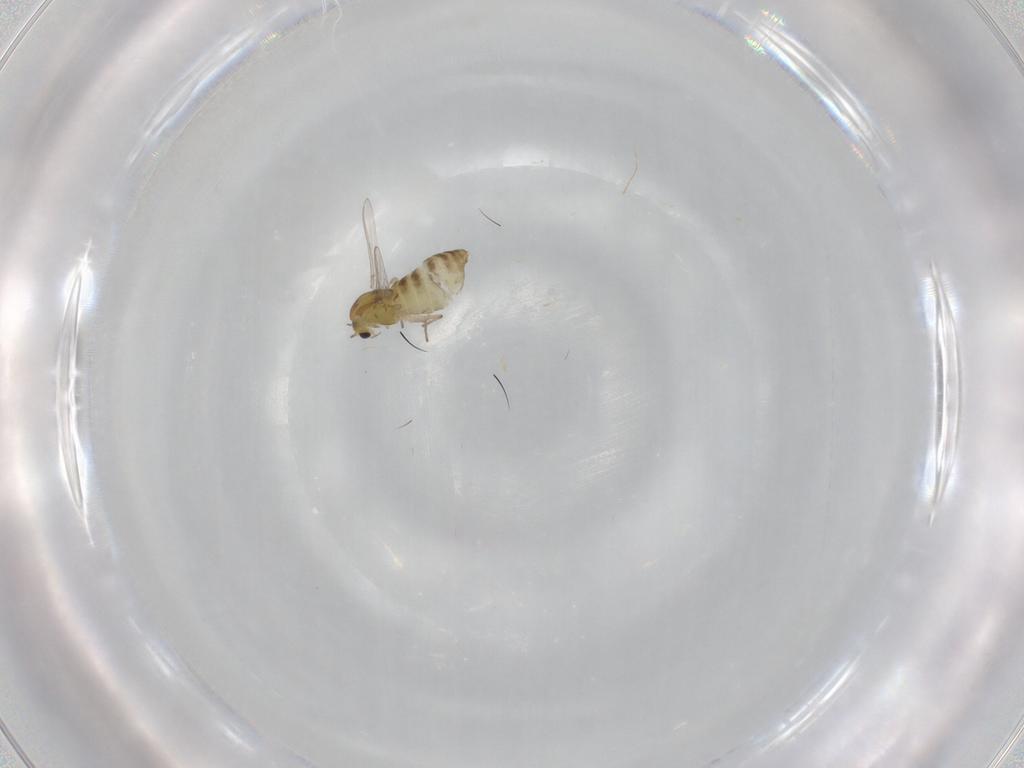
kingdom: Animalia
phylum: Arthropoda
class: Insecta
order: Diptera
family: Chironomidae
